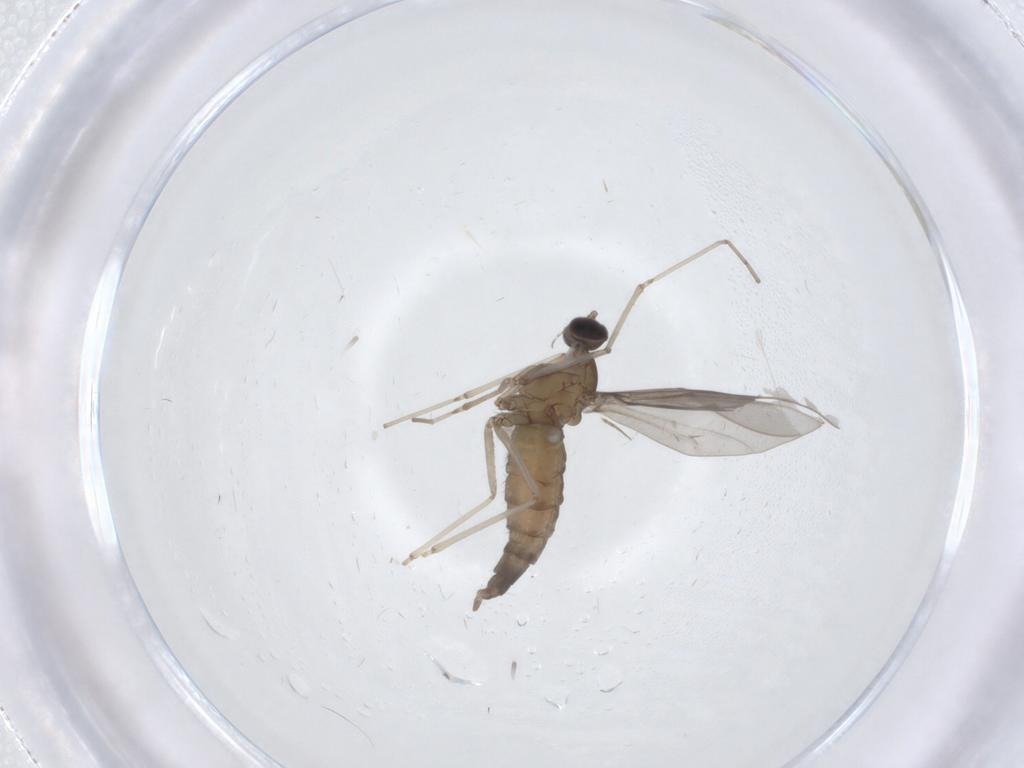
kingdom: Animalia
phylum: Arthropoda
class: Insecta
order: Diptera
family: Cecidomyiidae
